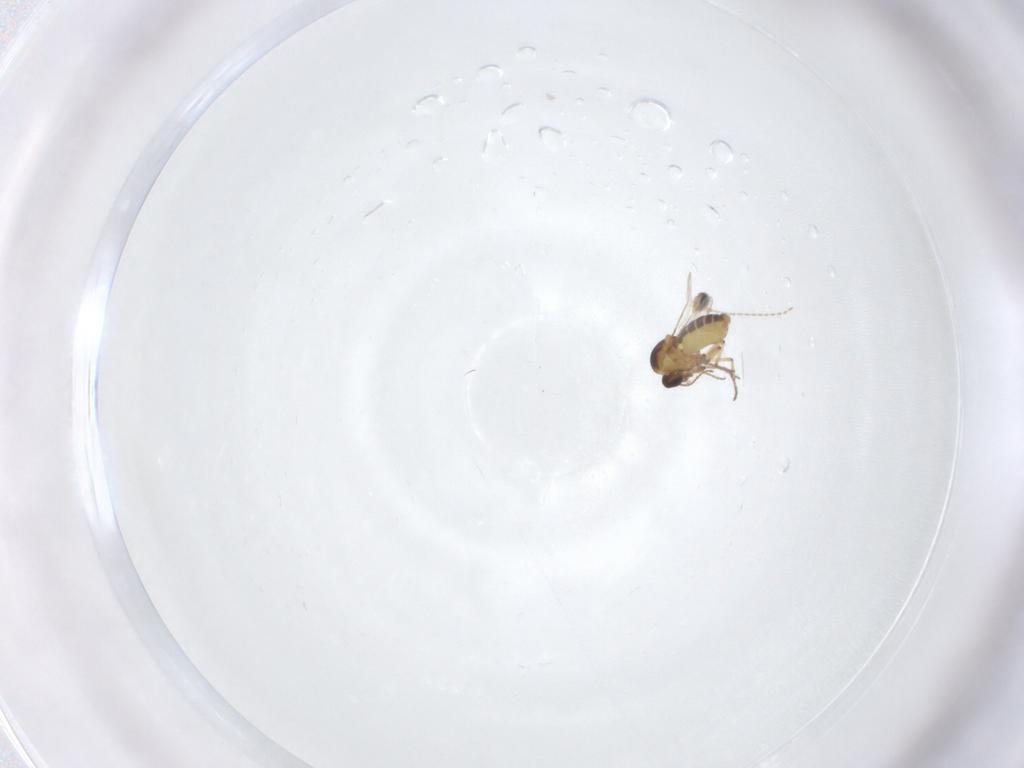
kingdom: Animalia
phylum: Arthropoda
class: Insecta
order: Diptera
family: Ceratopogonidae
